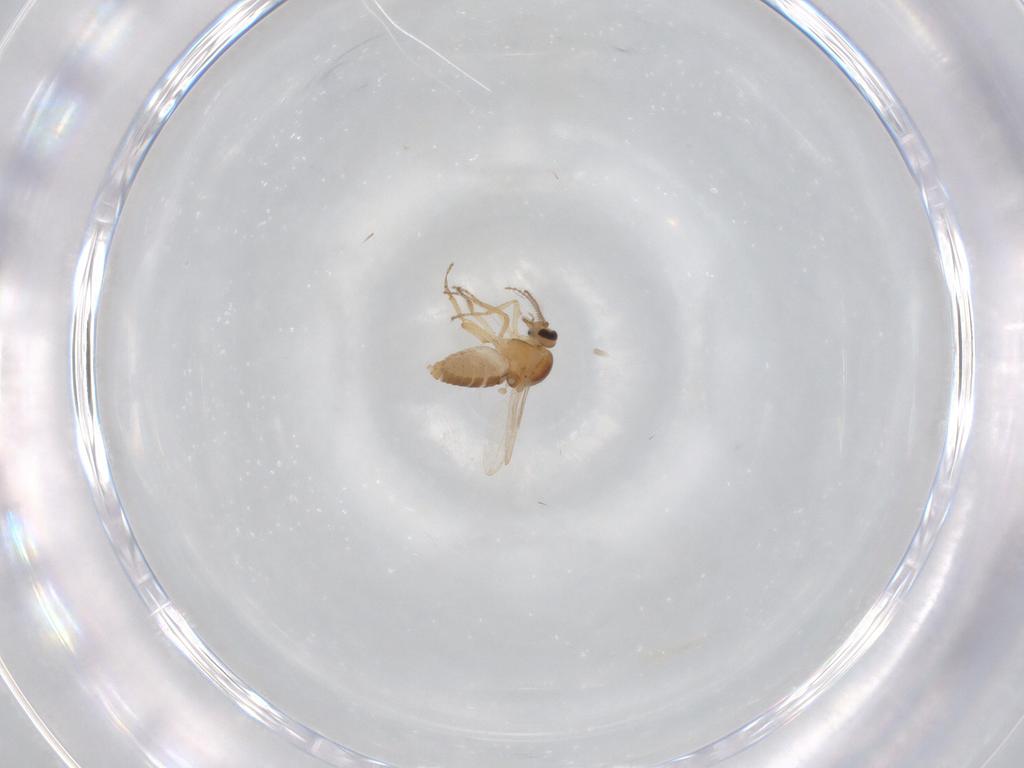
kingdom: Animalia
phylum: Arthropoda
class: Insecta
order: Diptera
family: Ceratopogonidae
